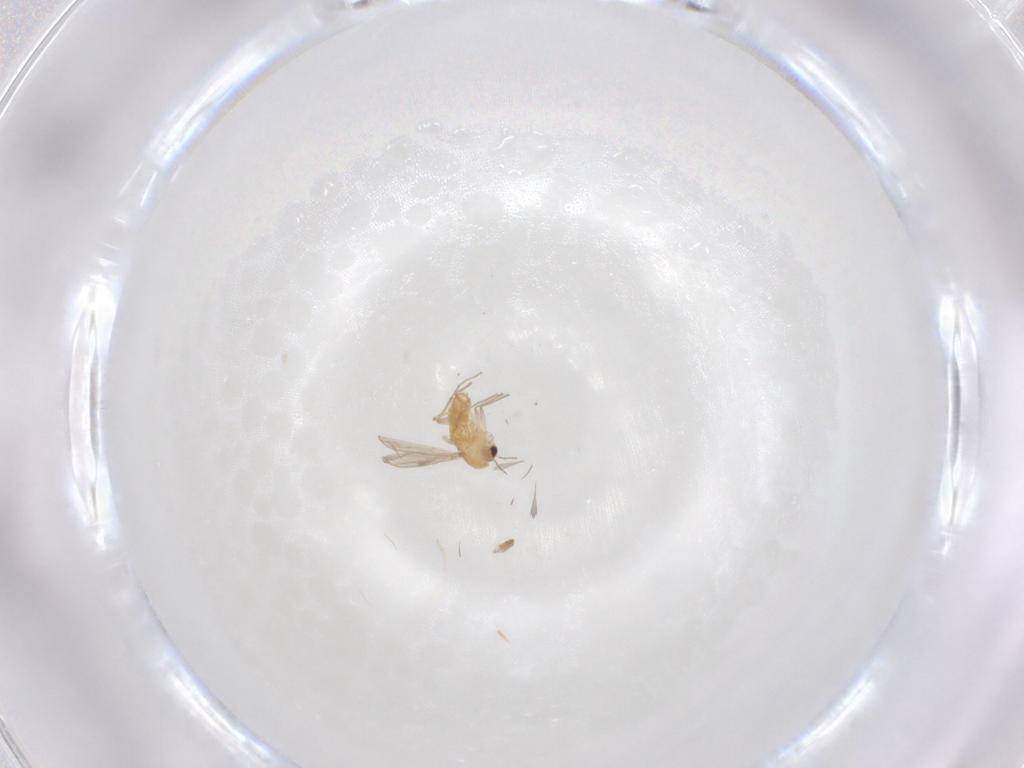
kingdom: Animalia
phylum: Arthropoda
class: Insecta
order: Diptera
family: Chironomidae
